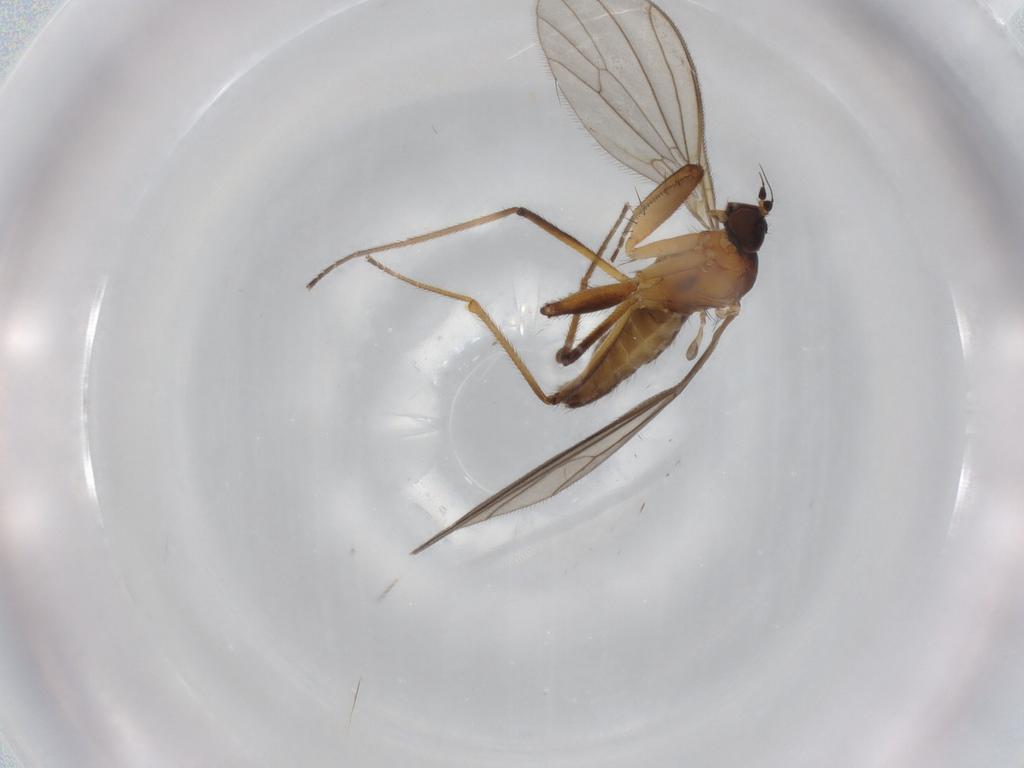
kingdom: Animalia
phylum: Arthropoda
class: Insecta
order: Diptera
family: Empididae
